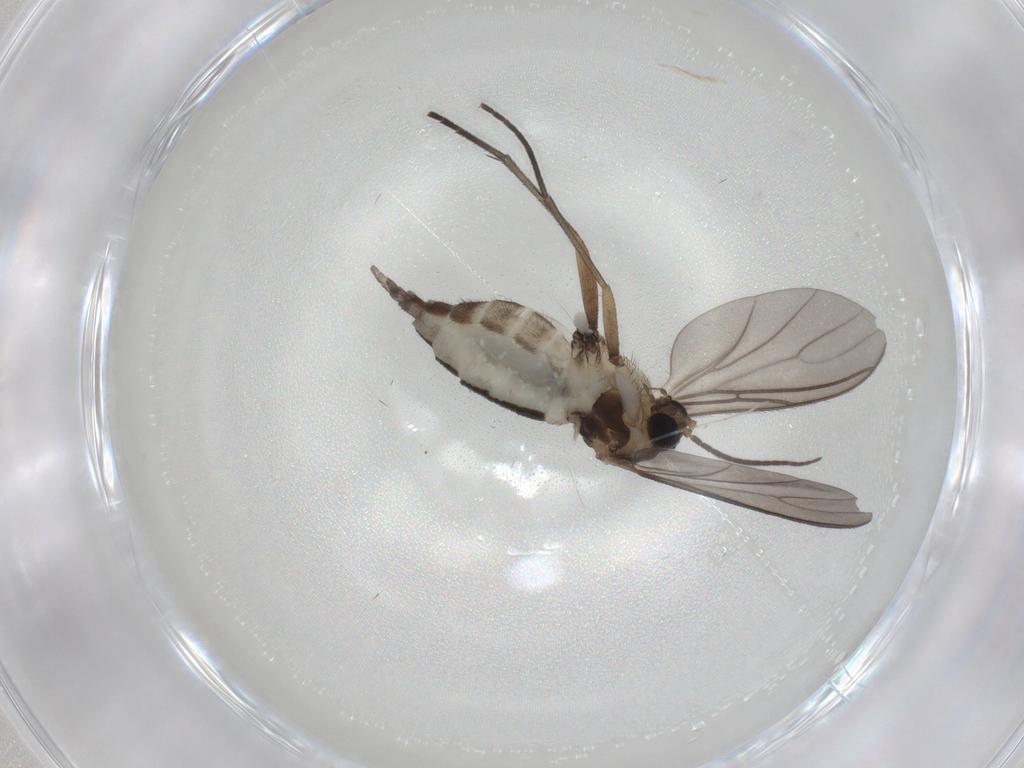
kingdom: Animalia
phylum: Arthropoda
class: Insecta
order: Diptera
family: Sciaridae
